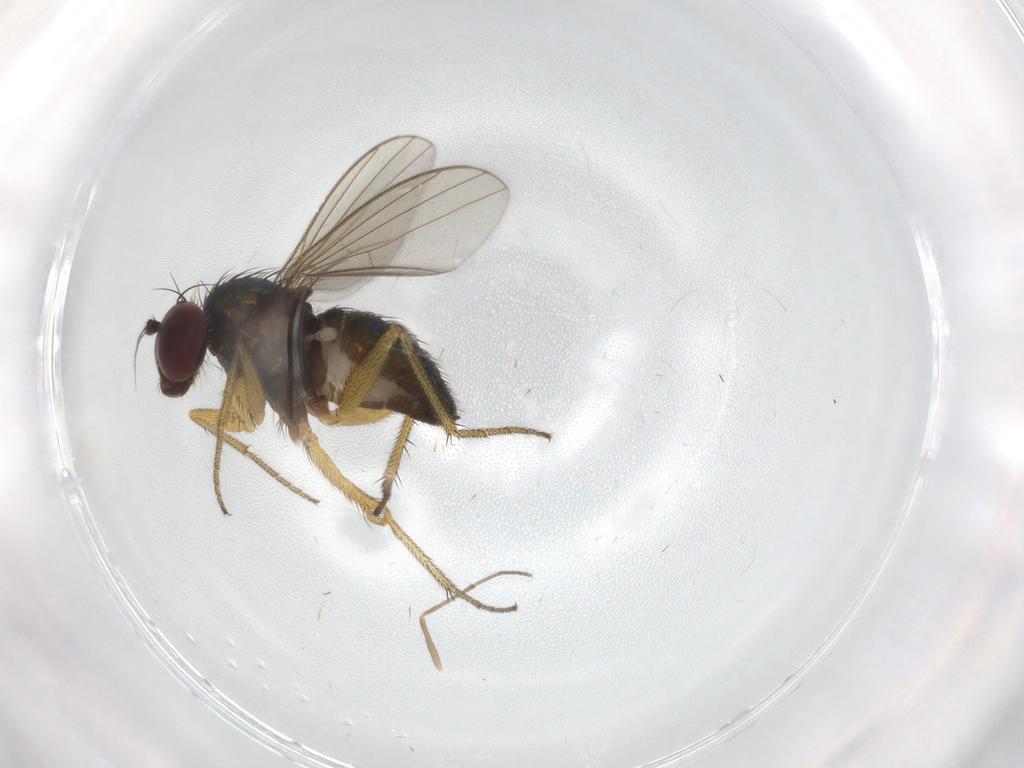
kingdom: Animalia
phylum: Arthropoda
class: Insecta
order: Diptera
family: Chironomidae
